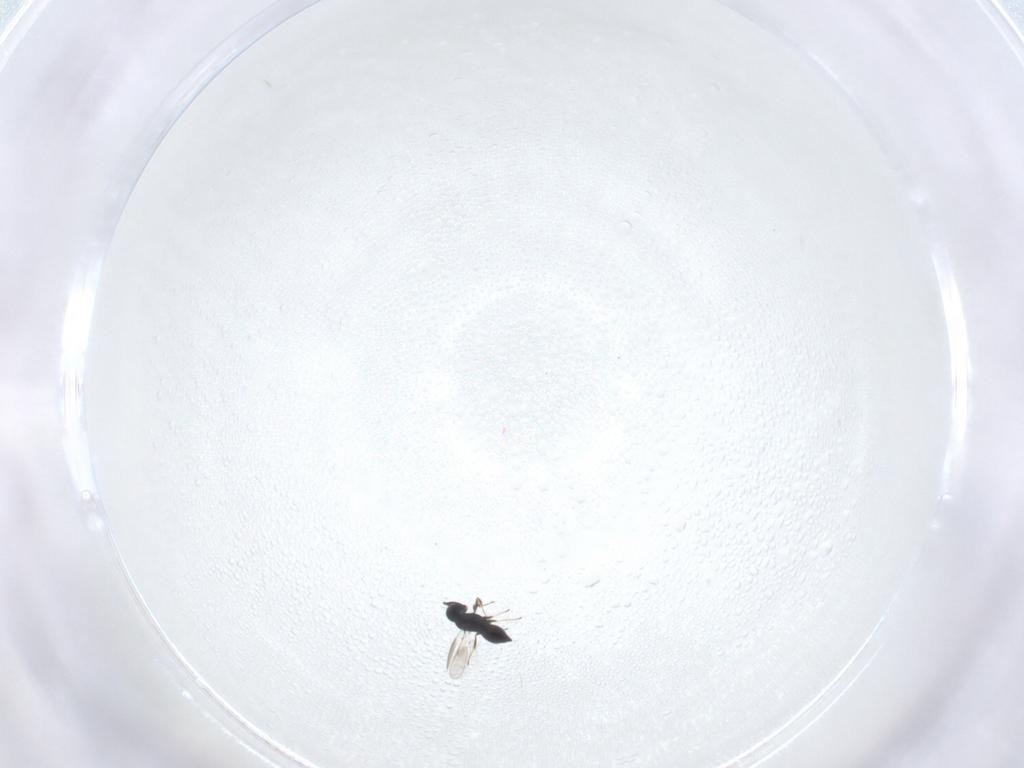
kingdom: Animalia
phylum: Arthropoda
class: Insecta
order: Hymenoptera
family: Scelionidae
